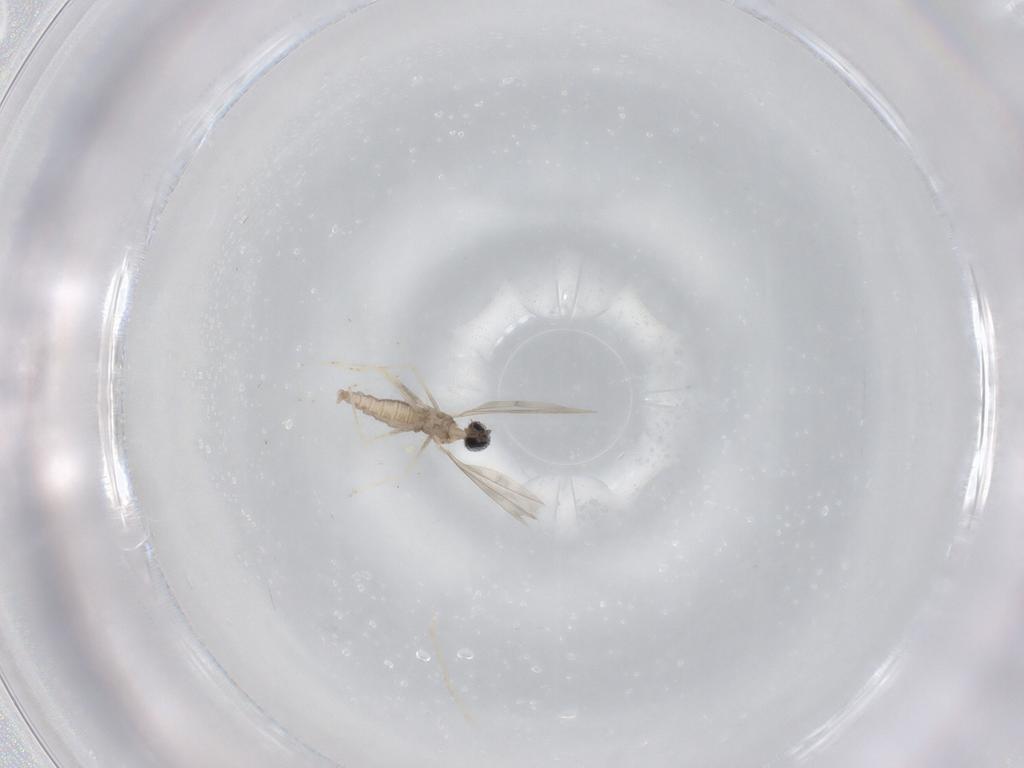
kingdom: Animalia
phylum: Arthropoda
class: Insecta
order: Diptera
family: Cecidomyiidae
